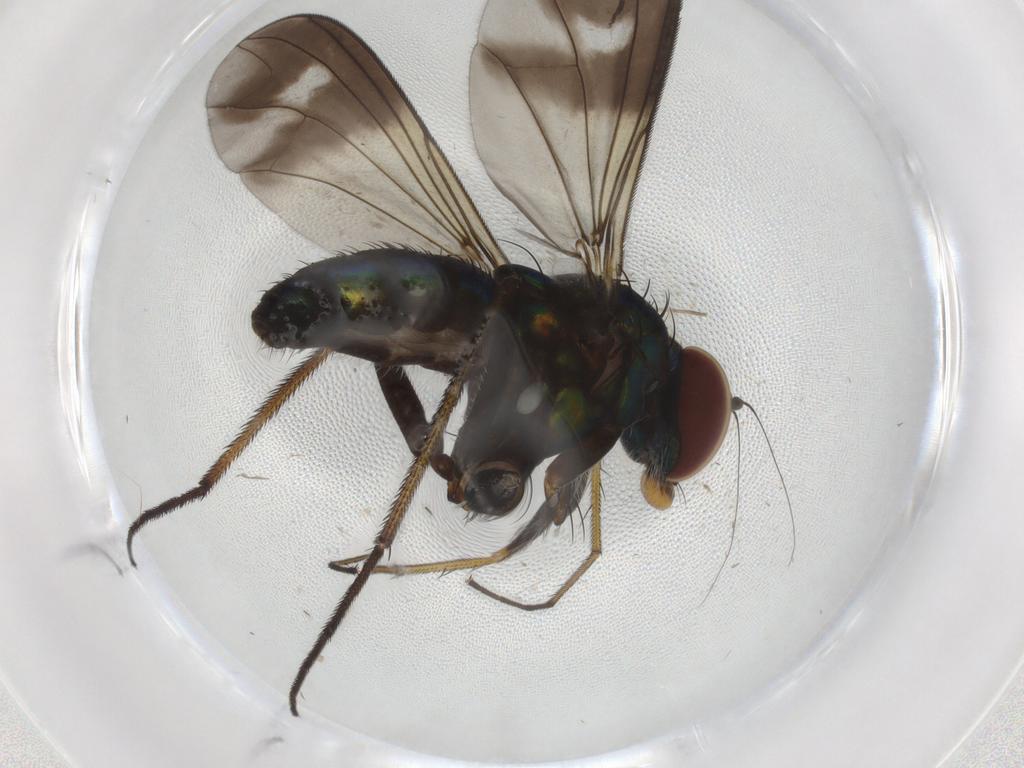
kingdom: Animalia
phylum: Arthropoda
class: Insecta
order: Diptera
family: Dolichopodidae
